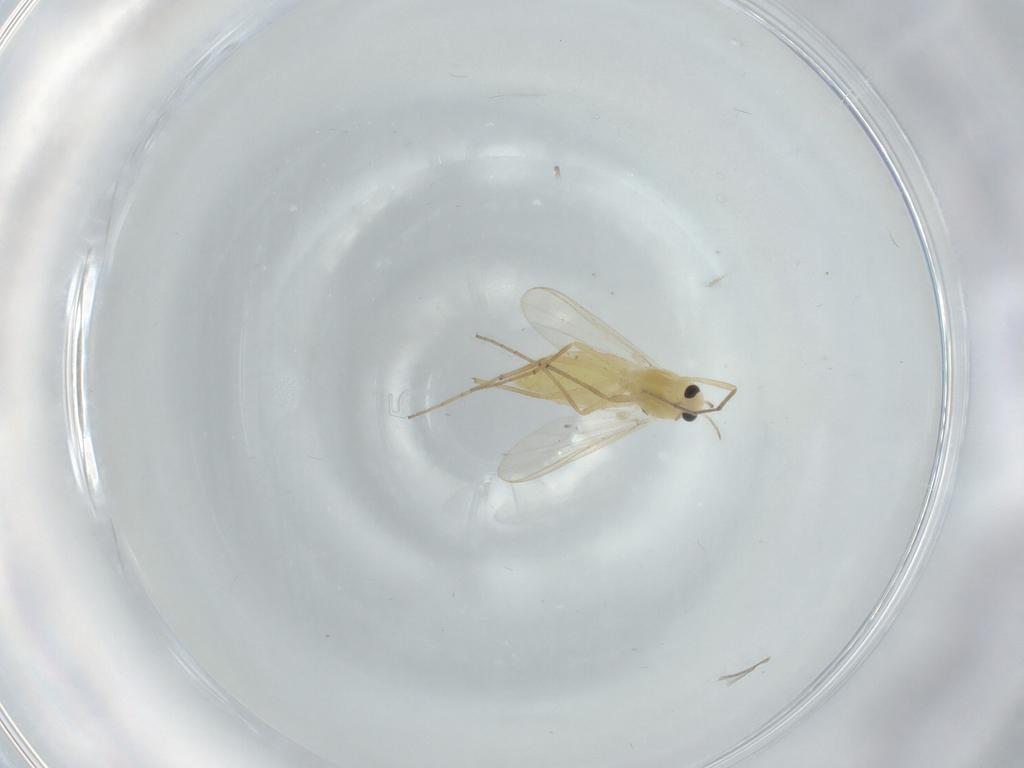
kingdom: Animalia
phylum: Arthropoda
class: Insecta
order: Diptera
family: Chironomidae
